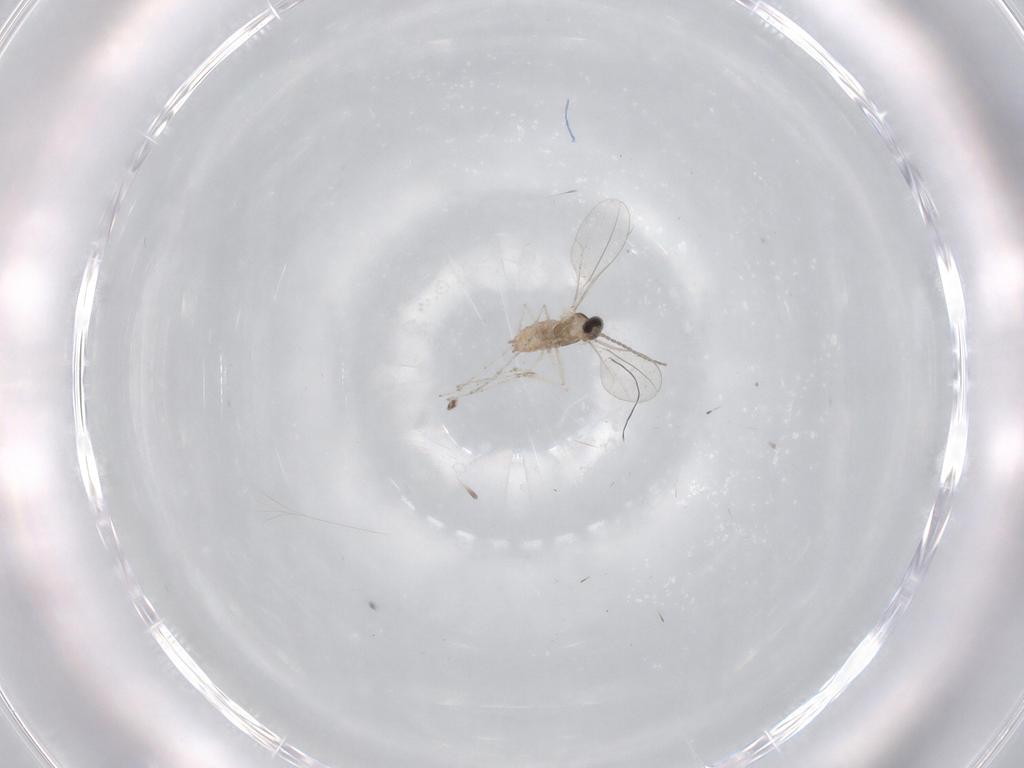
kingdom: Animalia
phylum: Arthropoda
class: Insecta
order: Diptera
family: Cecidomyiidae
